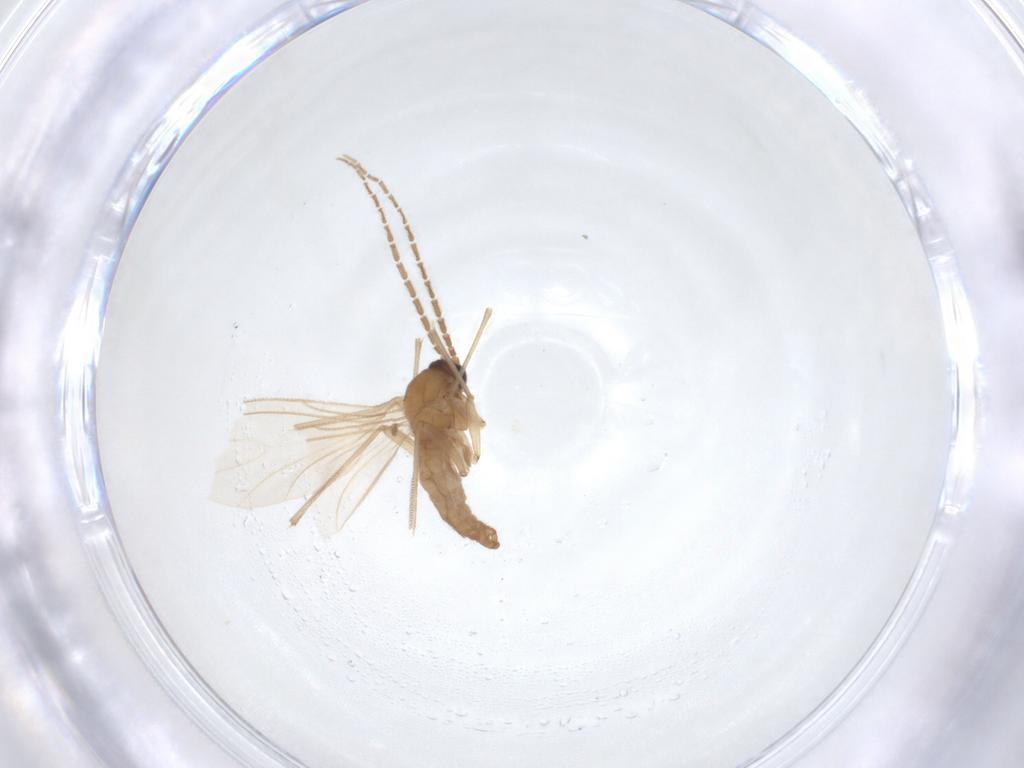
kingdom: Animalia
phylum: Arthropoda
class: Insecta
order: Diptera
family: Sciaridae
